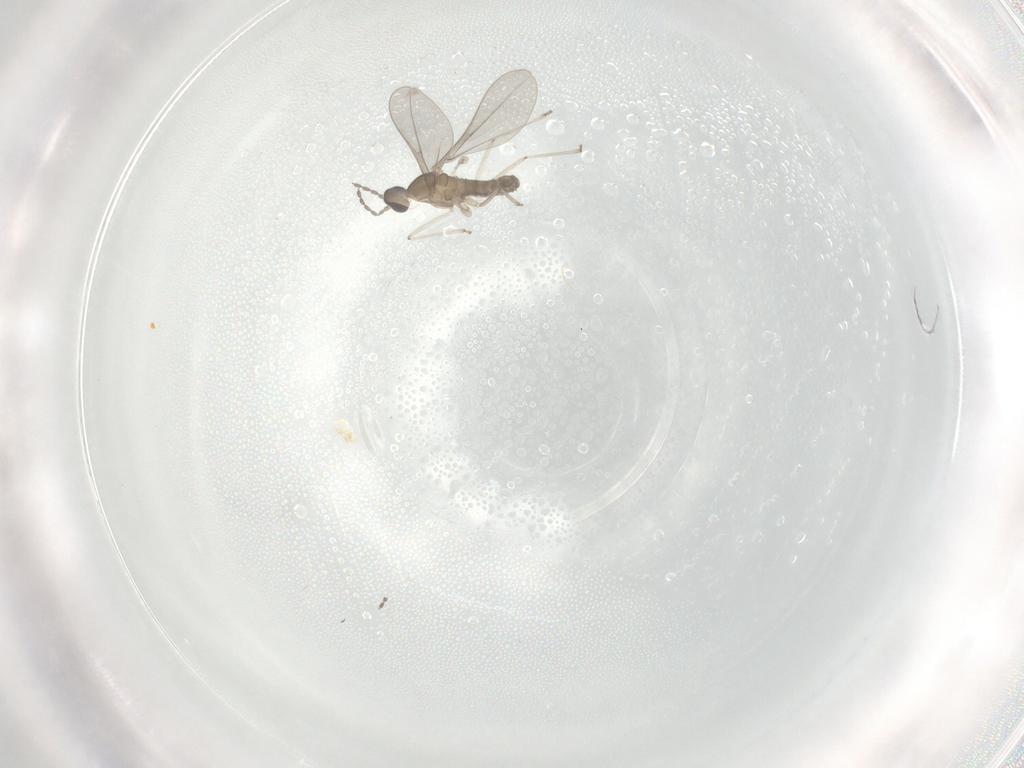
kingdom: Animalia
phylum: Arthropoda
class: Insecta
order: Diptera
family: Cecidomyiidae
